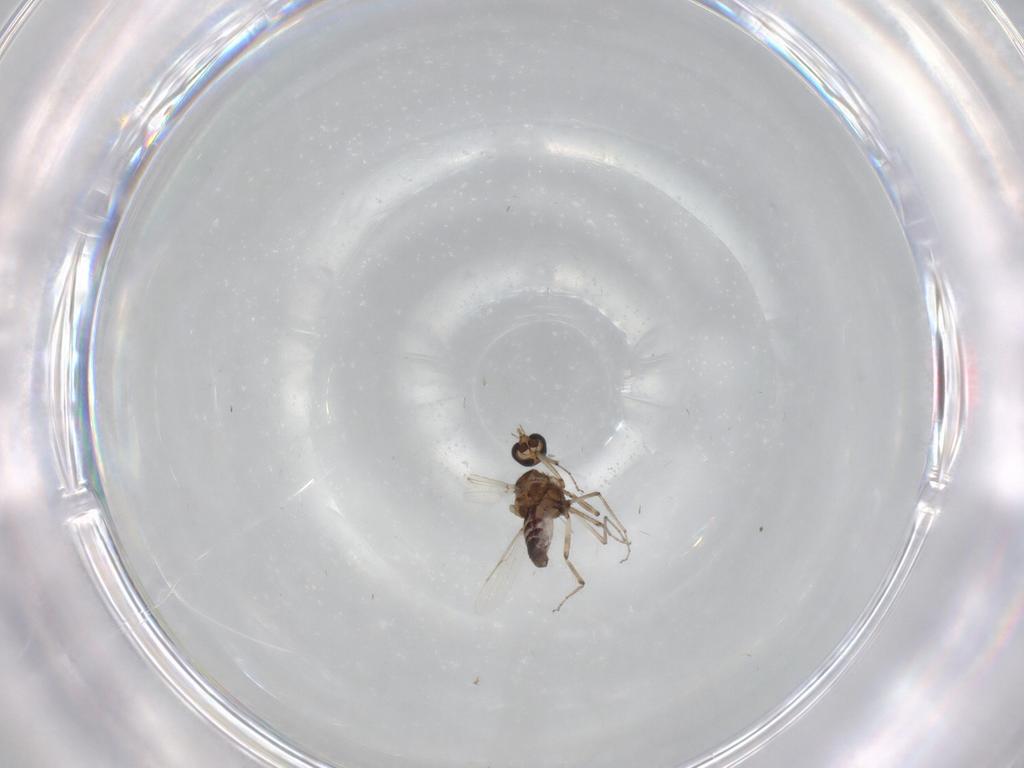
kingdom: Animalia
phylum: Arthropoda
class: Insecta
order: Diptera
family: Ceratopogonidae
